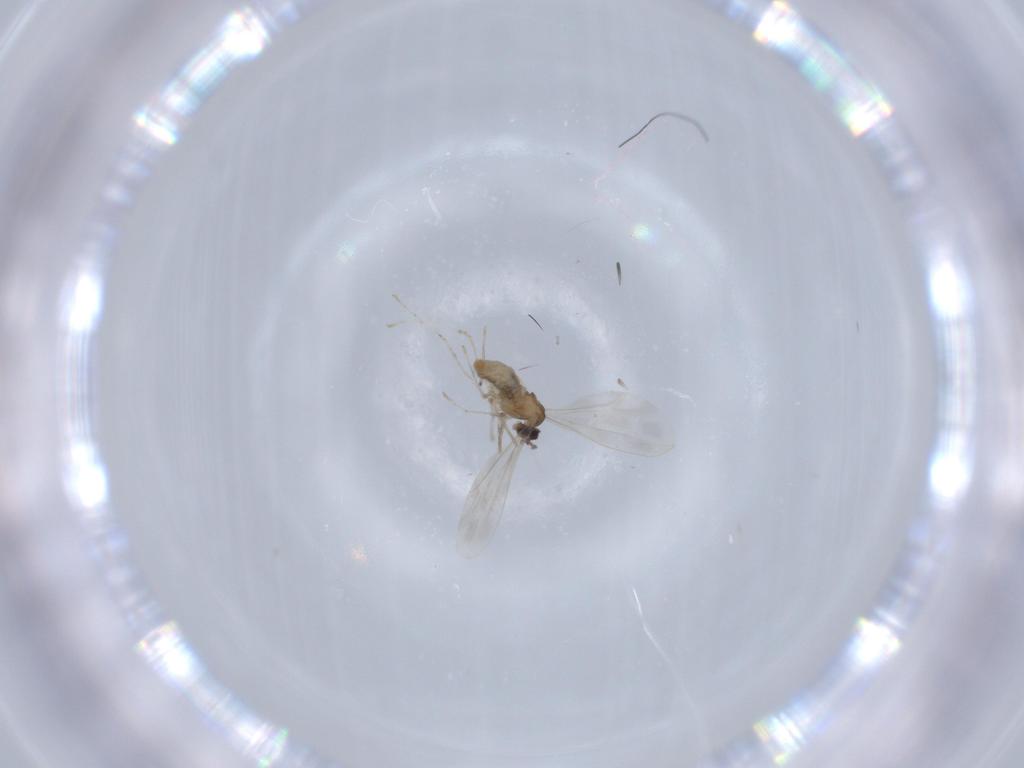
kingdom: Animalia
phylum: Arthropoda
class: Insecta
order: Diptera
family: Cecidomyiidae
